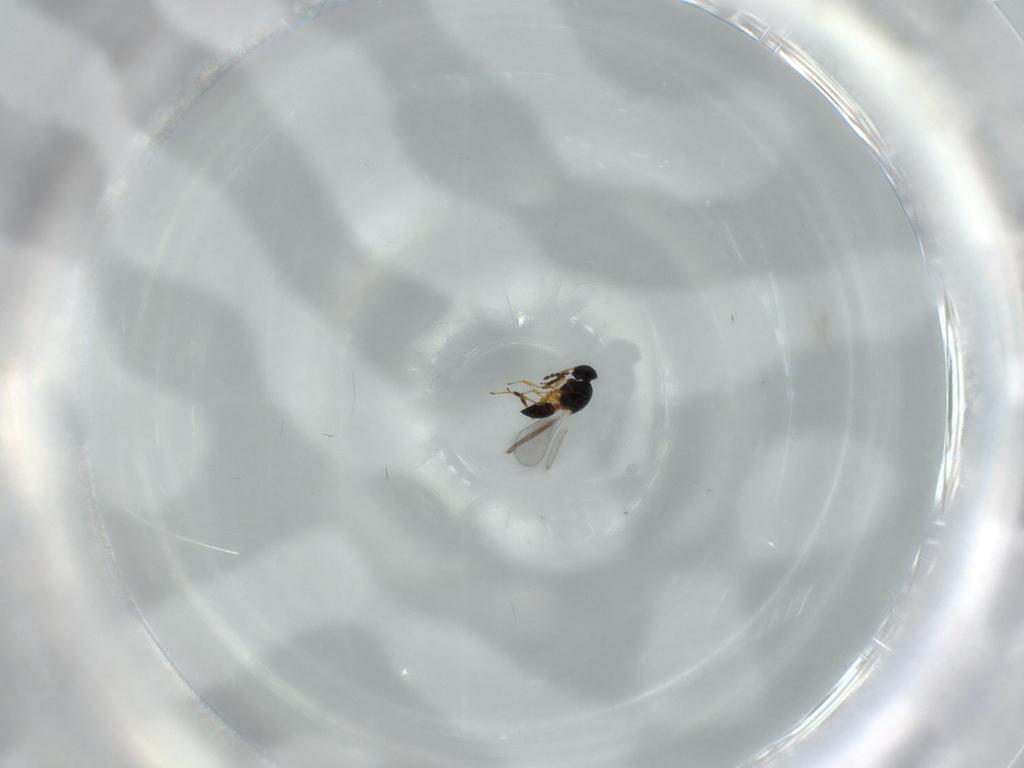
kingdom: Animalia
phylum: Arthropoda
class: Insecta
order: Hymenoptera
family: Platygastridae
